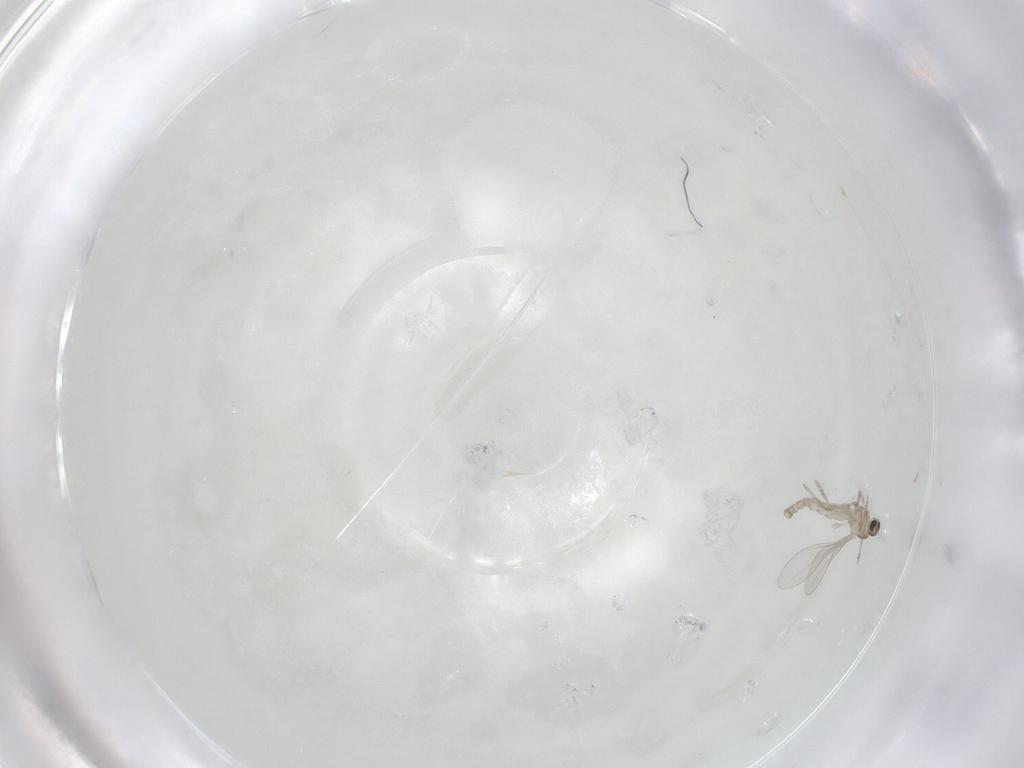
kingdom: Animalia
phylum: Arthropoda
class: Insecta
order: Diptera
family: Cecidomyiidae
